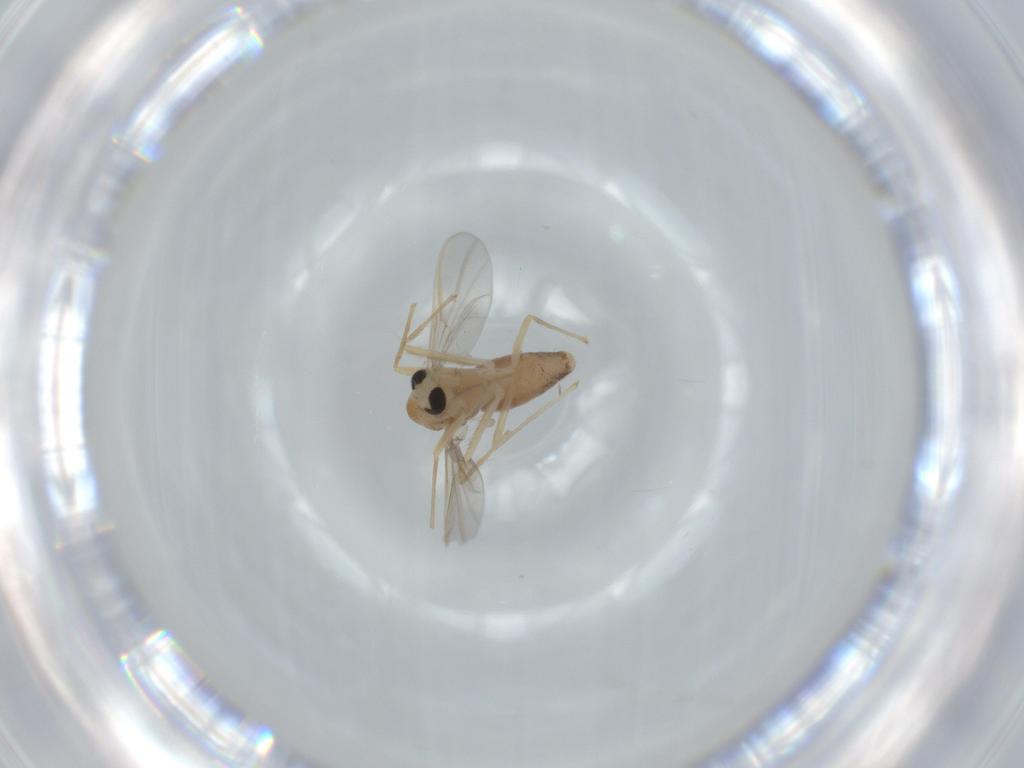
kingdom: Animalia
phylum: Arthropoda
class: Insecta
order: Diptera
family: Chironomidae
